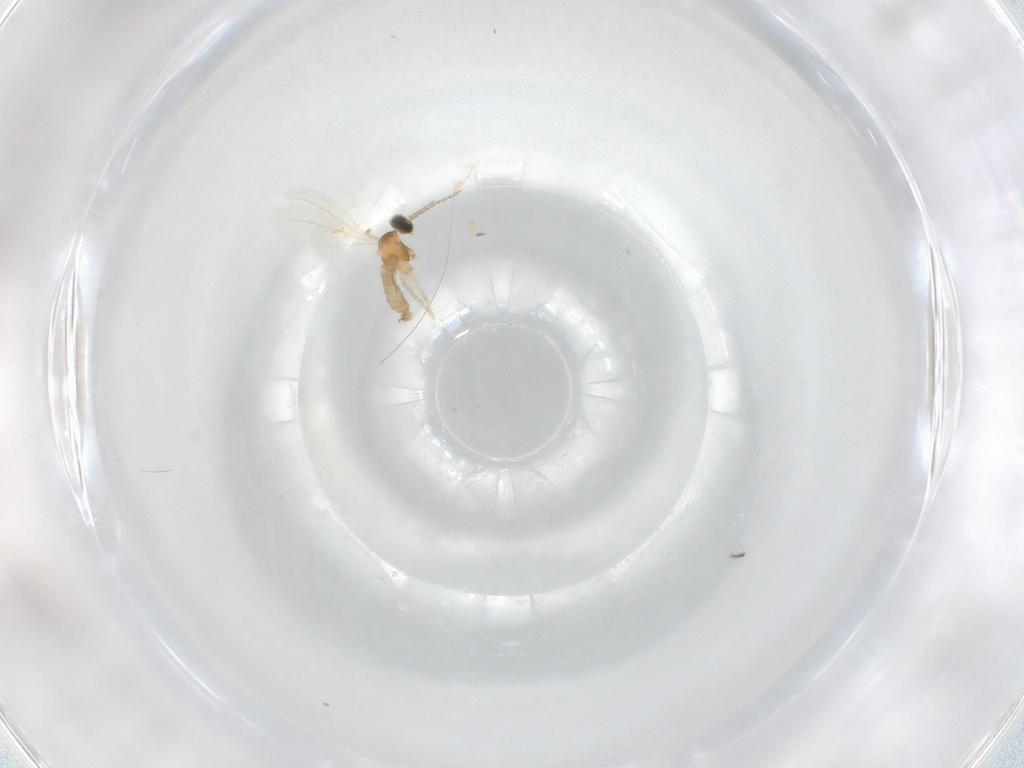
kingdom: Animalia
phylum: Arthropoda
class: Insecta
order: Diptera
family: Cecidomyiidae
